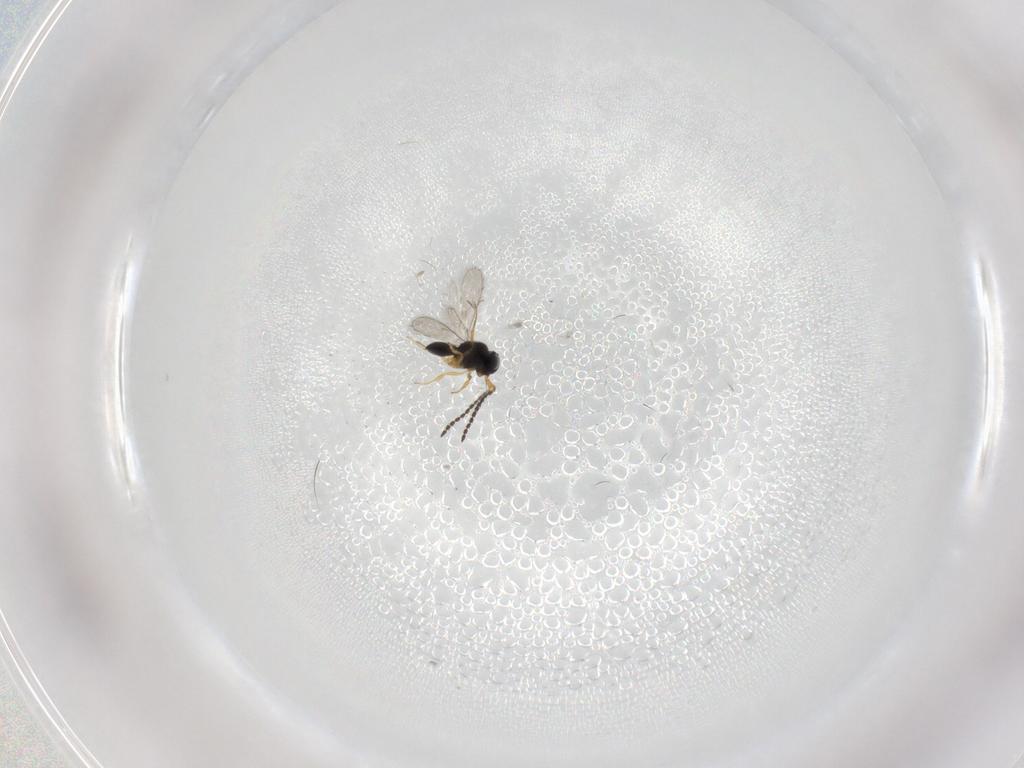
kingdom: Animalia
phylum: Arthropoda
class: Insecta
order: Hymenoptera
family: Scelionidae
